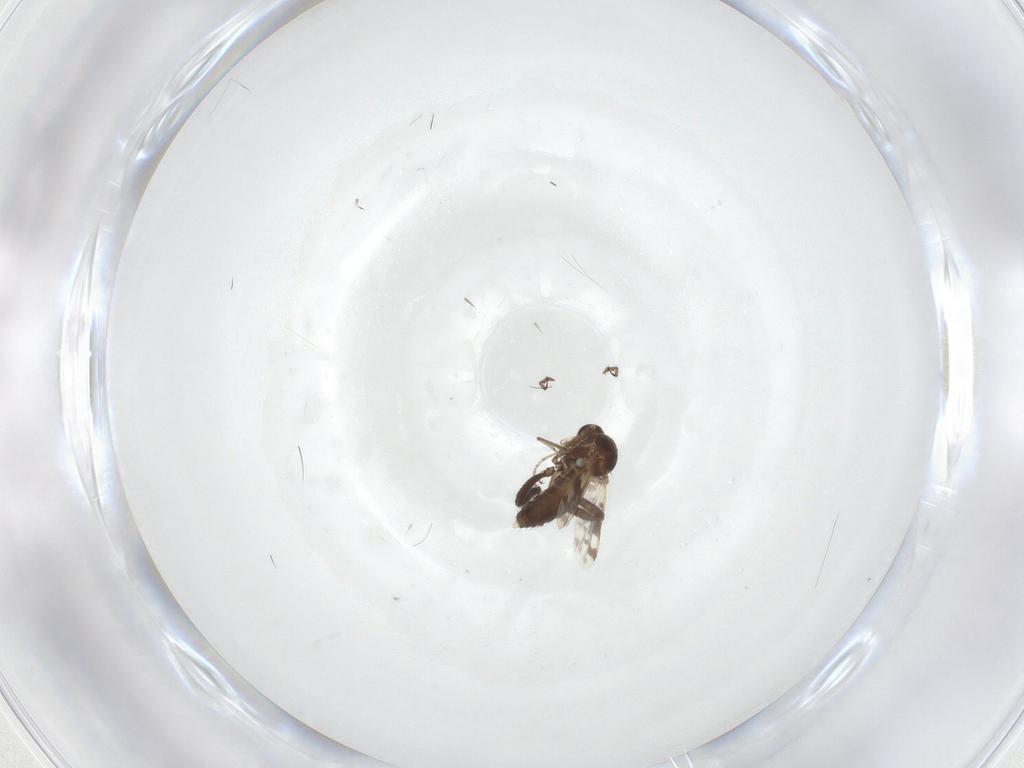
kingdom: Animalia
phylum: Arthropoda
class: Insecta
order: Diptera
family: Ceratopogonidae
